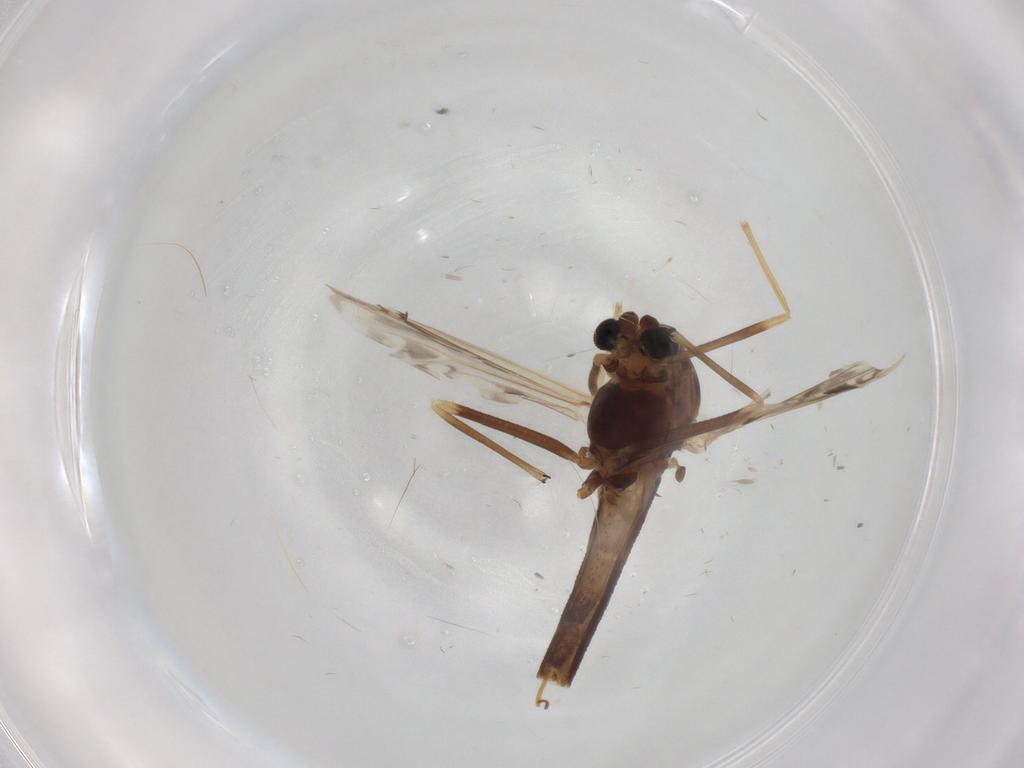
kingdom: Animalia
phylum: Arthropoda
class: Insecta
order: Diptera
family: Chironomidae
